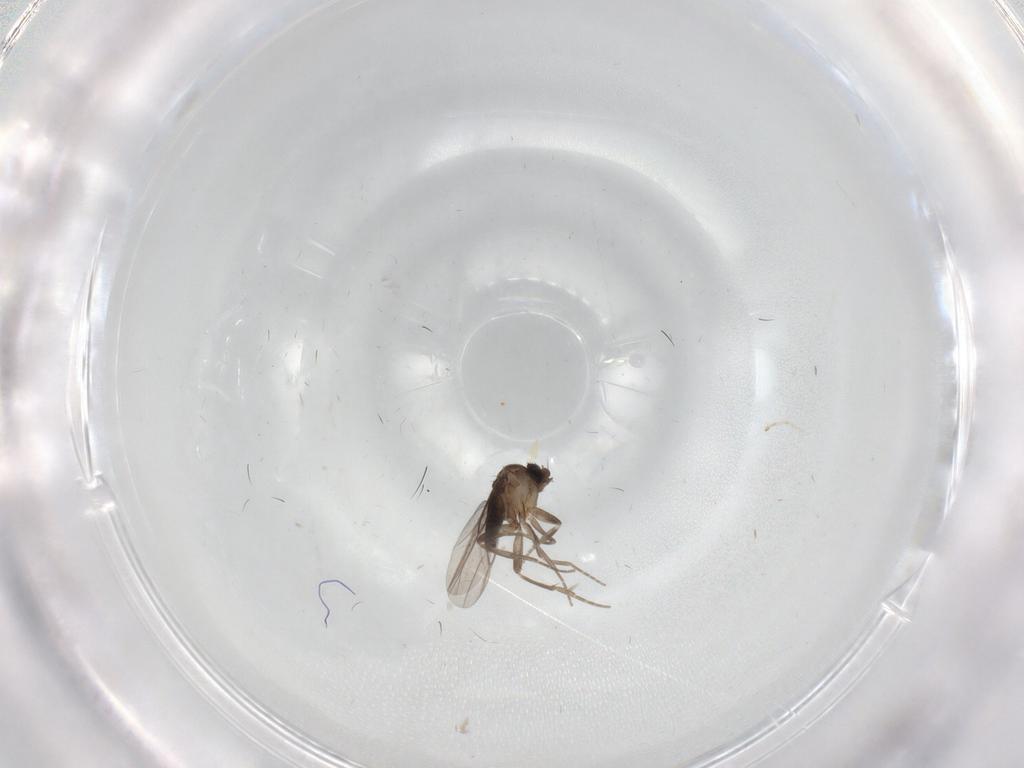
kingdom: Animalia
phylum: Arthropoda
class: Insecta
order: Diptera
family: Phoridae
